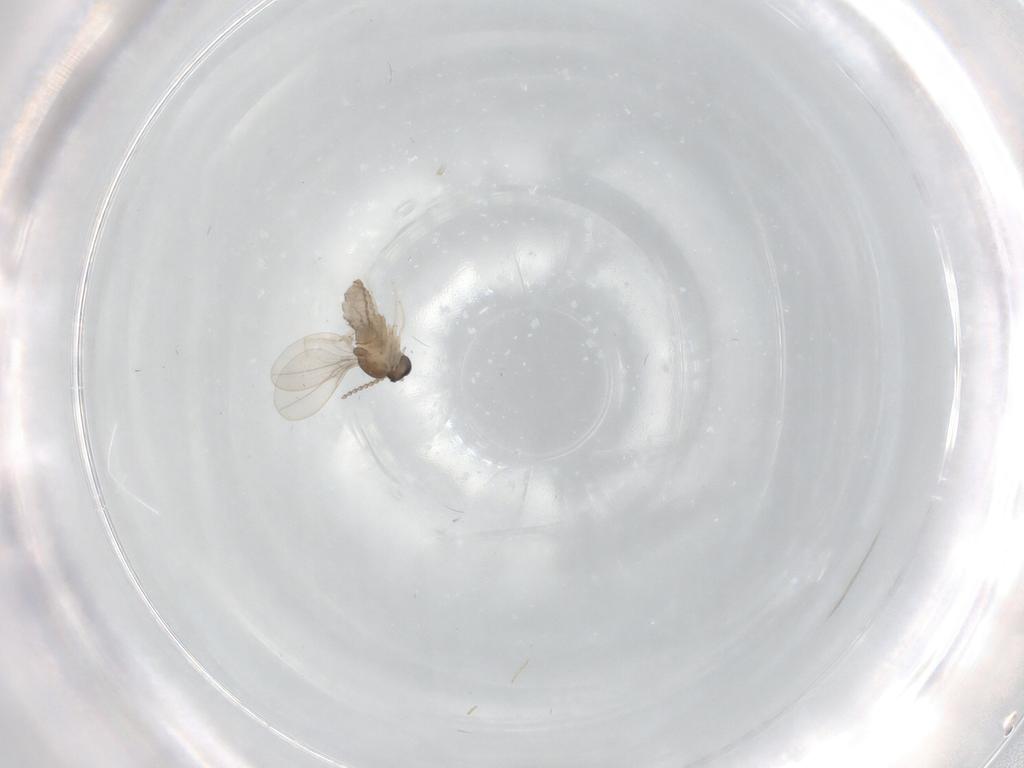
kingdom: Animalia
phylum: Arthropoda
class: Insecta
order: Diptera
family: Cecidomyiidae
